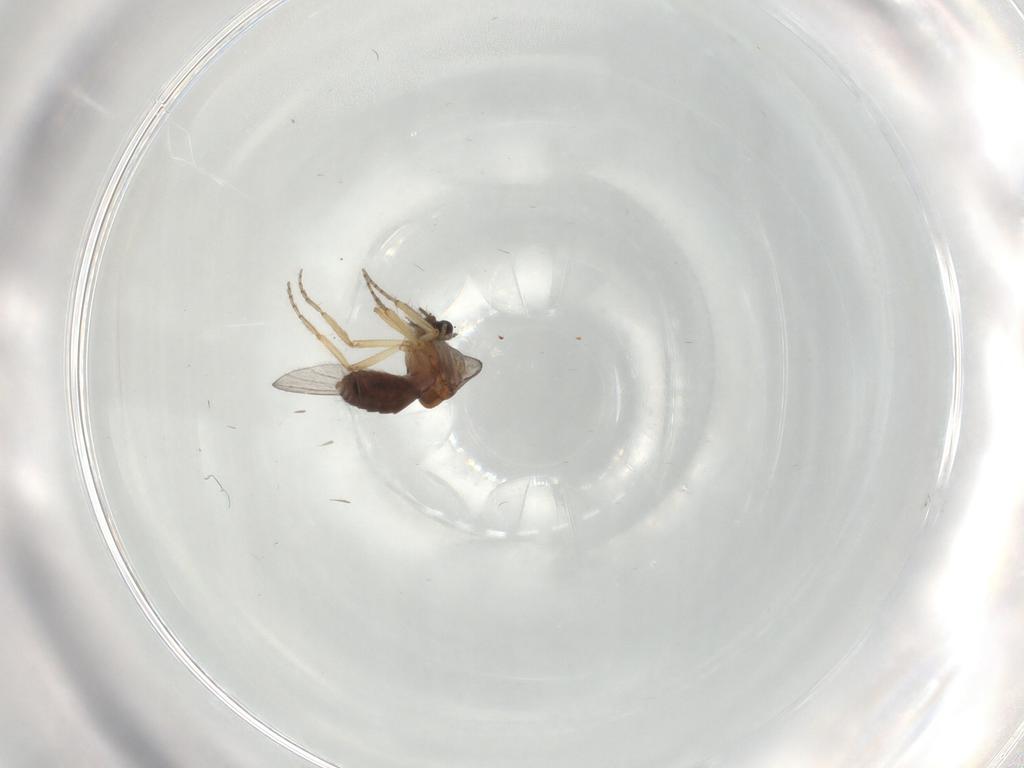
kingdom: Animalia
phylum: Arthropoda
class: Insecta
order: Diptera
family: Ceratopogonidae
